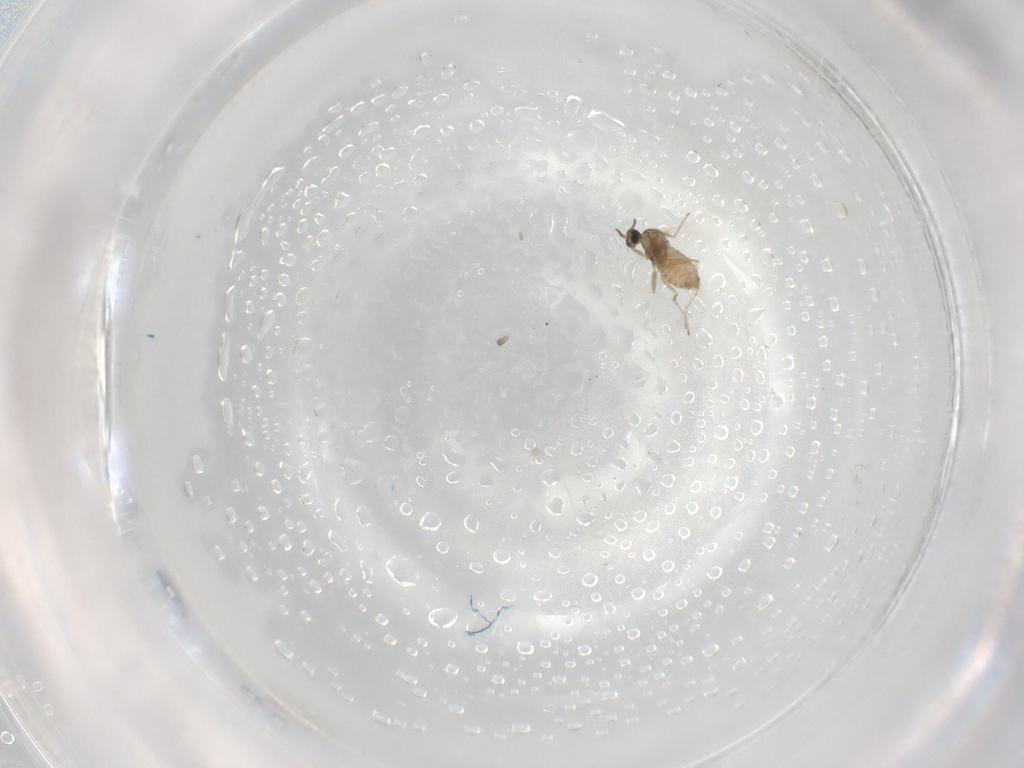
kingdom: Animalia
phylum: Arthropoda
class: Insecta
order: Diptera
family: Cecidomyiidae
